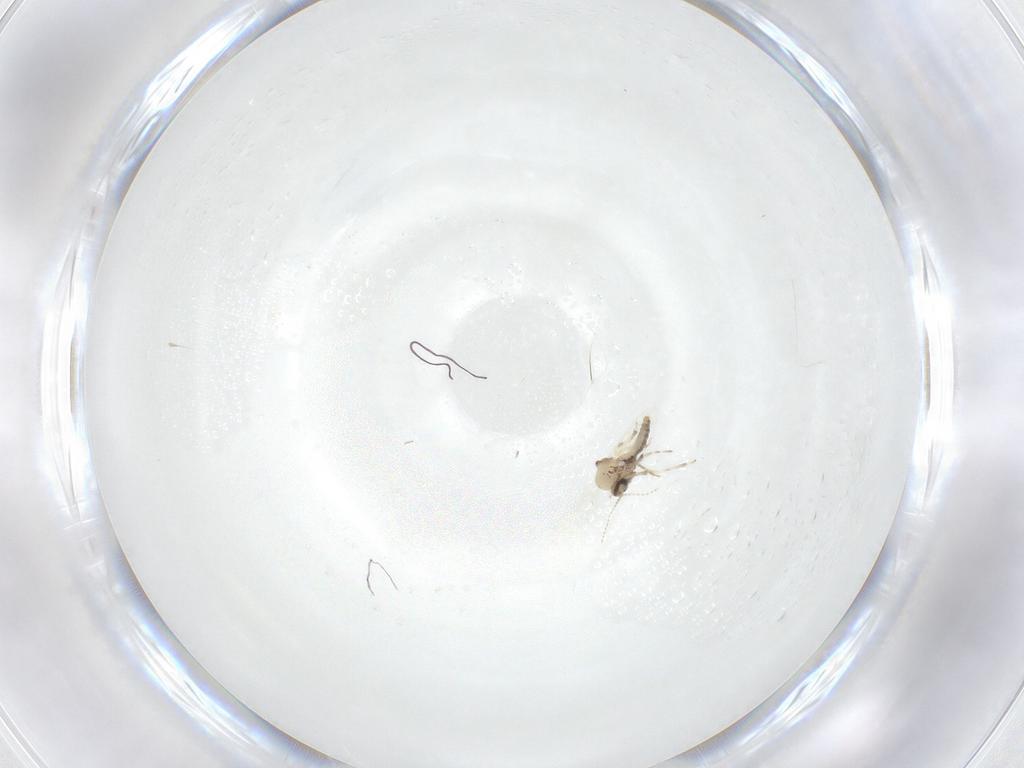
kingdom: Animalia
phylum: Arthropoda
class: Insecta
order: Diptera
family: Ceratopogonidae
